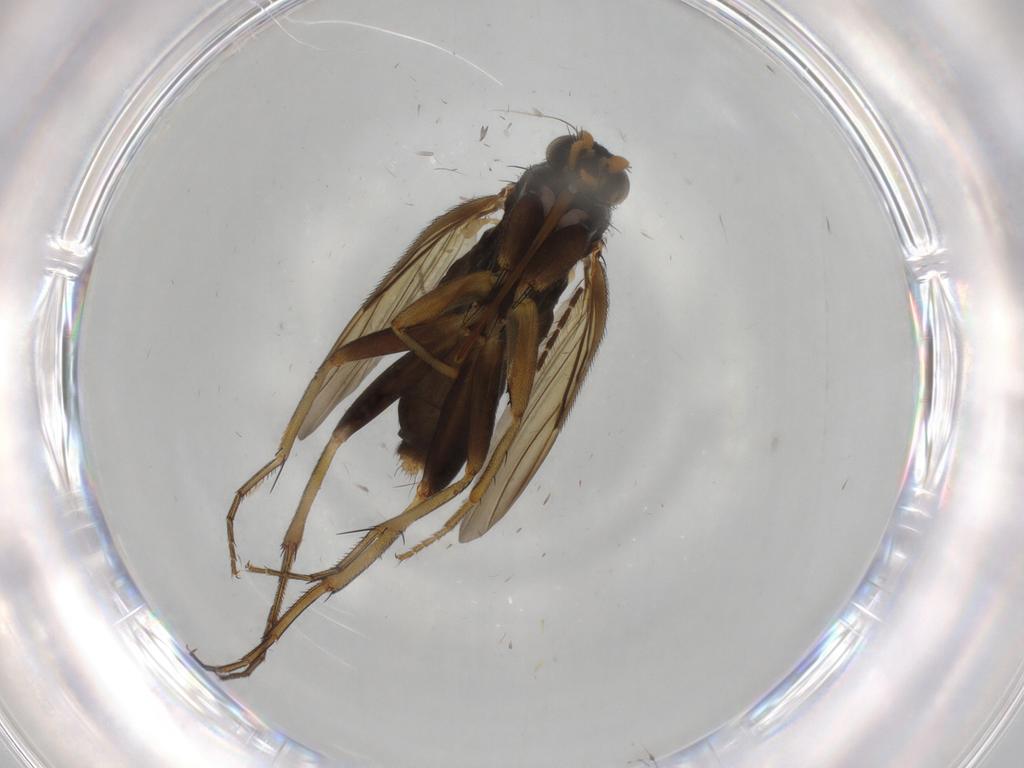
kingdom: Animalia
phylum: Arthropoda
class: Insecta
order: Diptera
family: Phoridae
